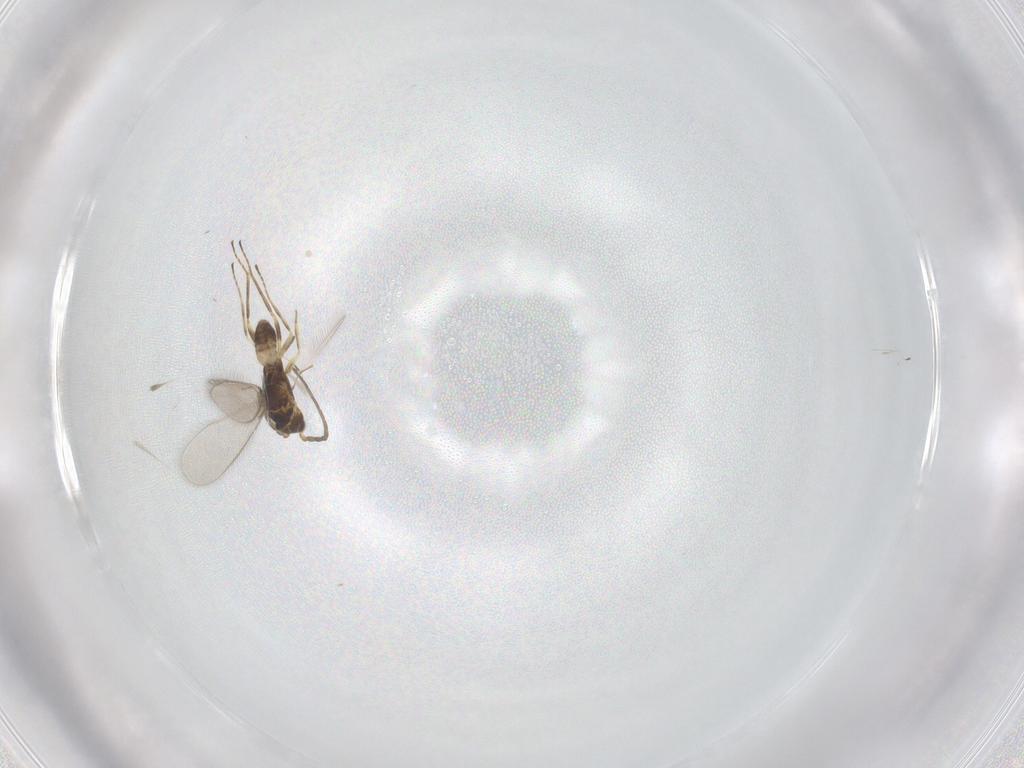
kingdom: Animalia
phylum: Arthropoda
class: Insecta
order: Hymenoptera
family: Mymaridae
